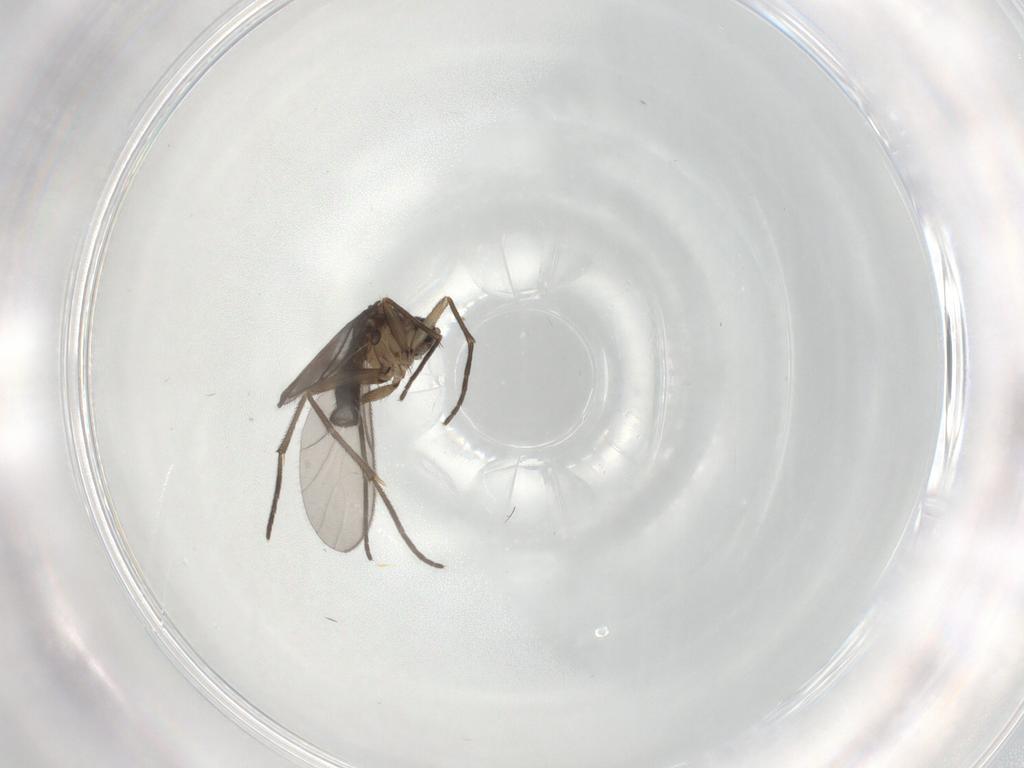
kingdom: Animalia
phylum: Arthropoda
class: Insecta
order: Diptera
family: Sciaridae
